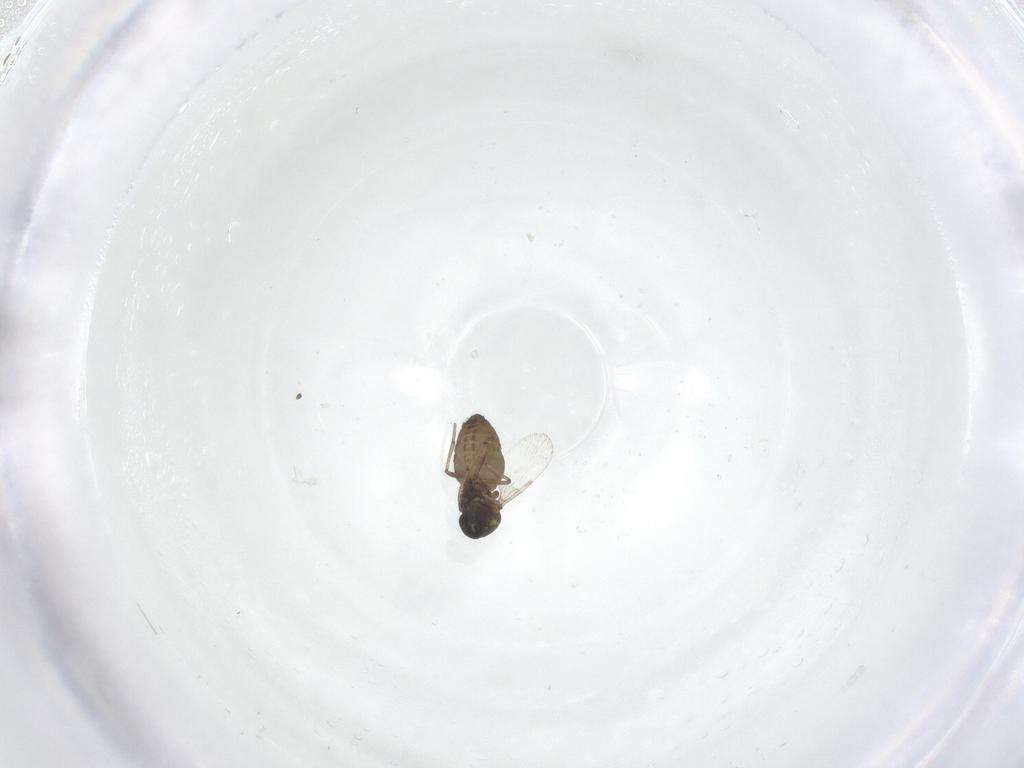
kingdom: Animalia
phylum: Arthropoda
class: Insecta
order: Diptera
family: Ceratopogonidae
